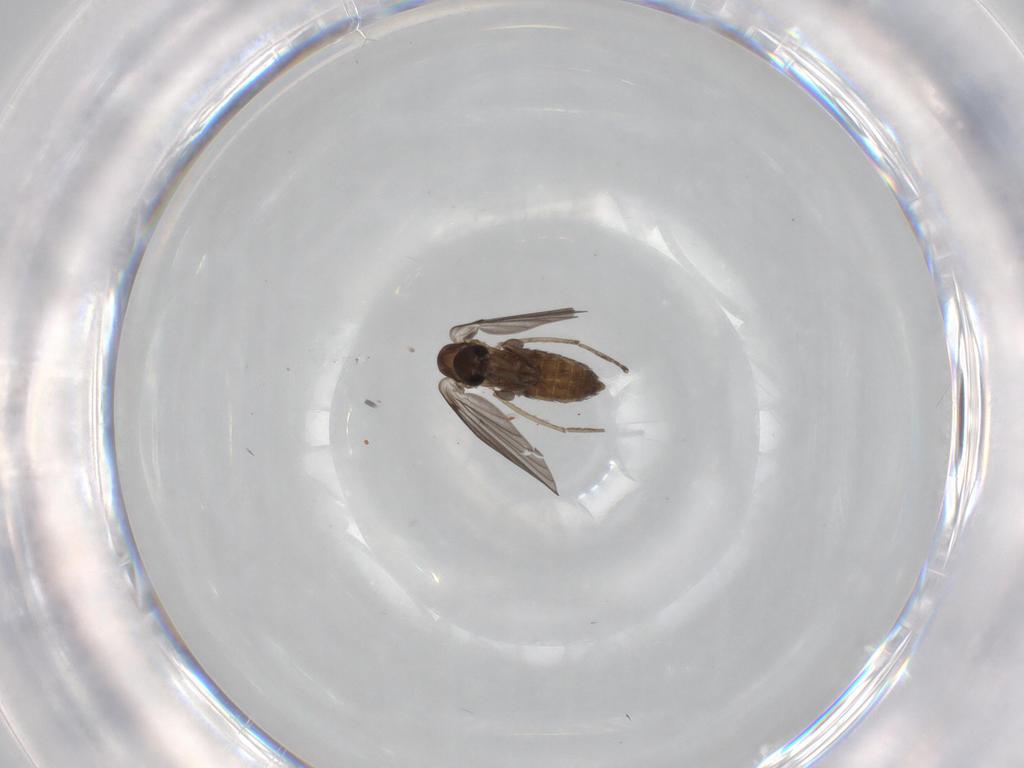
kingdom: Animalia
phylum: Arthropoda
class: Insecta
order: Diptera
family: Psychodidae
